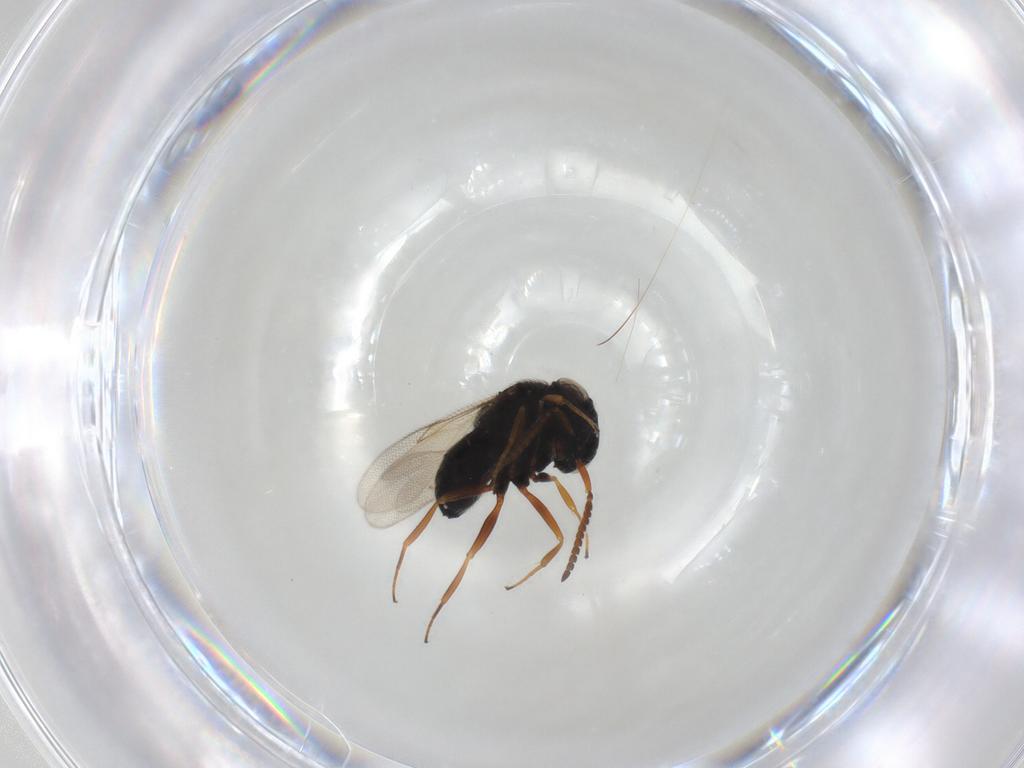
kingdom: Animalia
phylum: Arthropoda
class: Insecta
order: Hymenoptera
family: Scelionidae
